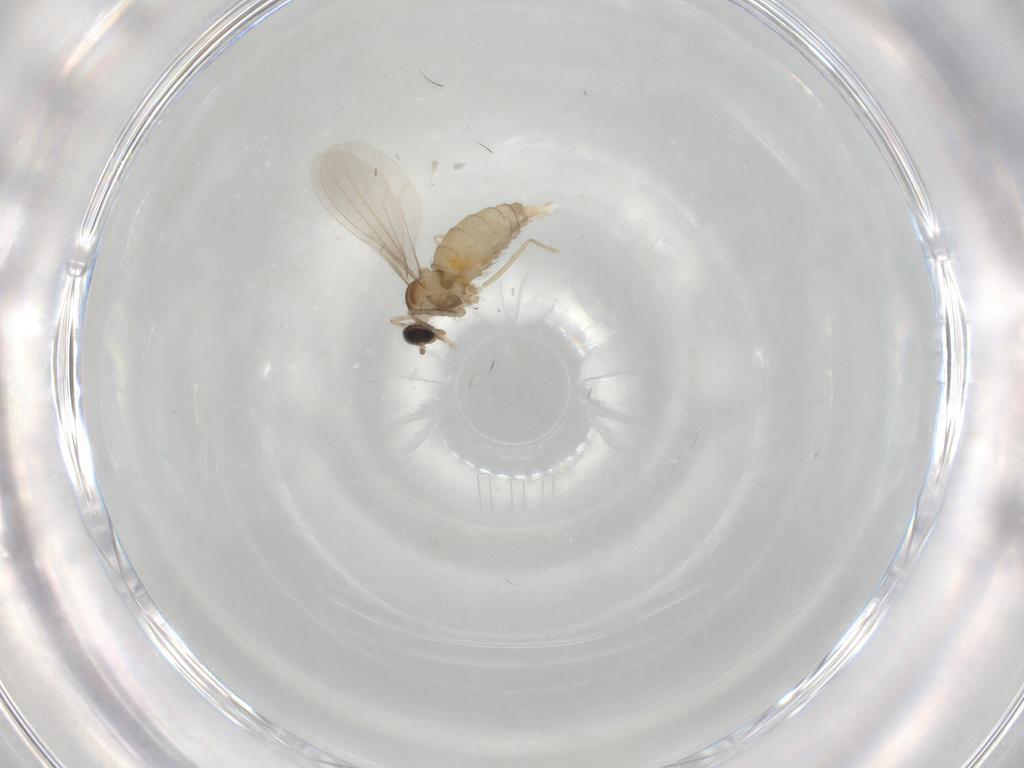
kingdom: Animalia
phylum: Arthropoda
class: Insecta
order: Diptera
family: Cecidomyiidae
